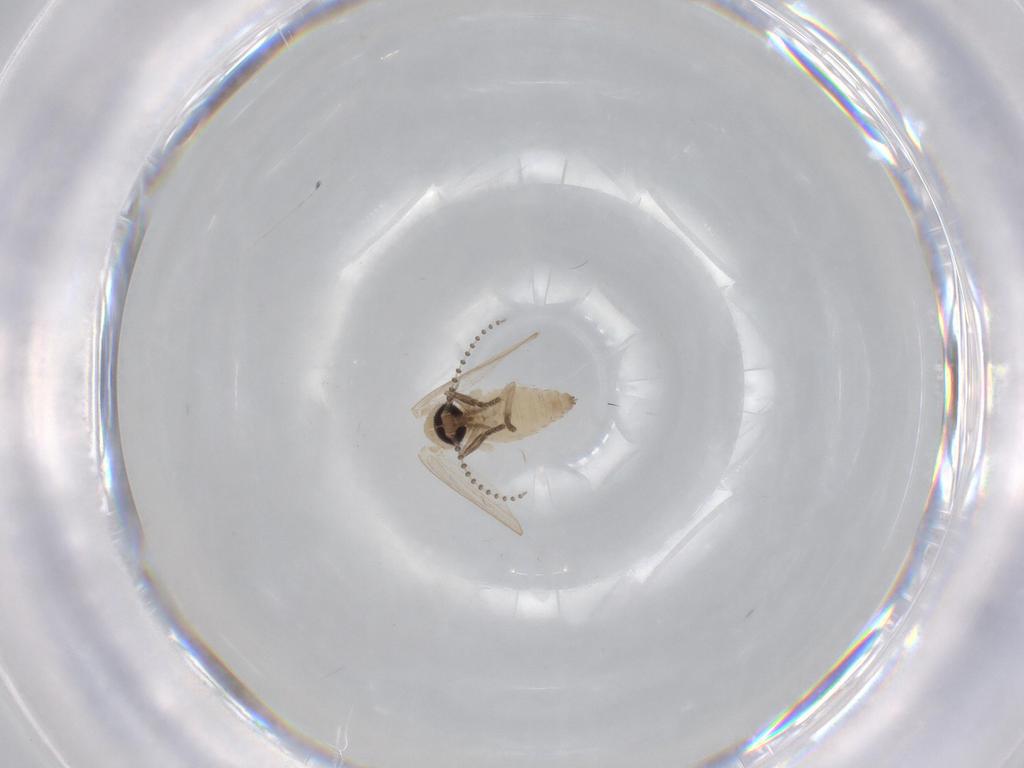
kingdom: Animalia
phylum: Arthropoda
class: Insecta
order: Diptera
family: Psychodidae
